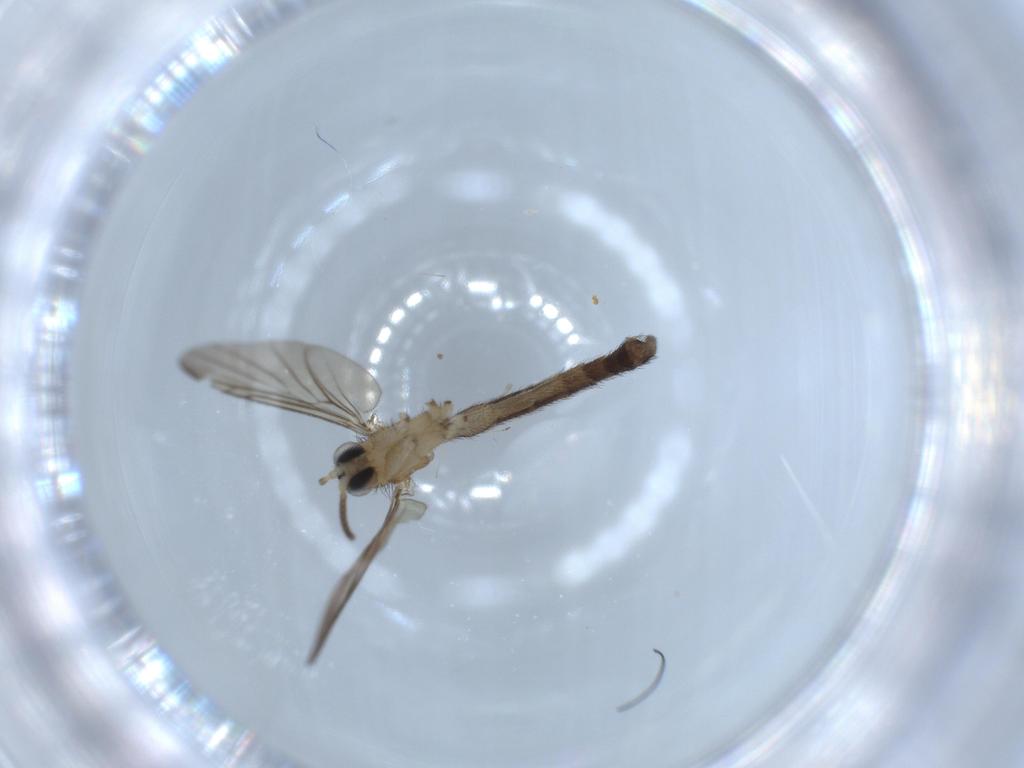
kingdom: Animalia
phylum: Arthropoda
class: Insecta
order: Diptera
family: Keroplatidae
